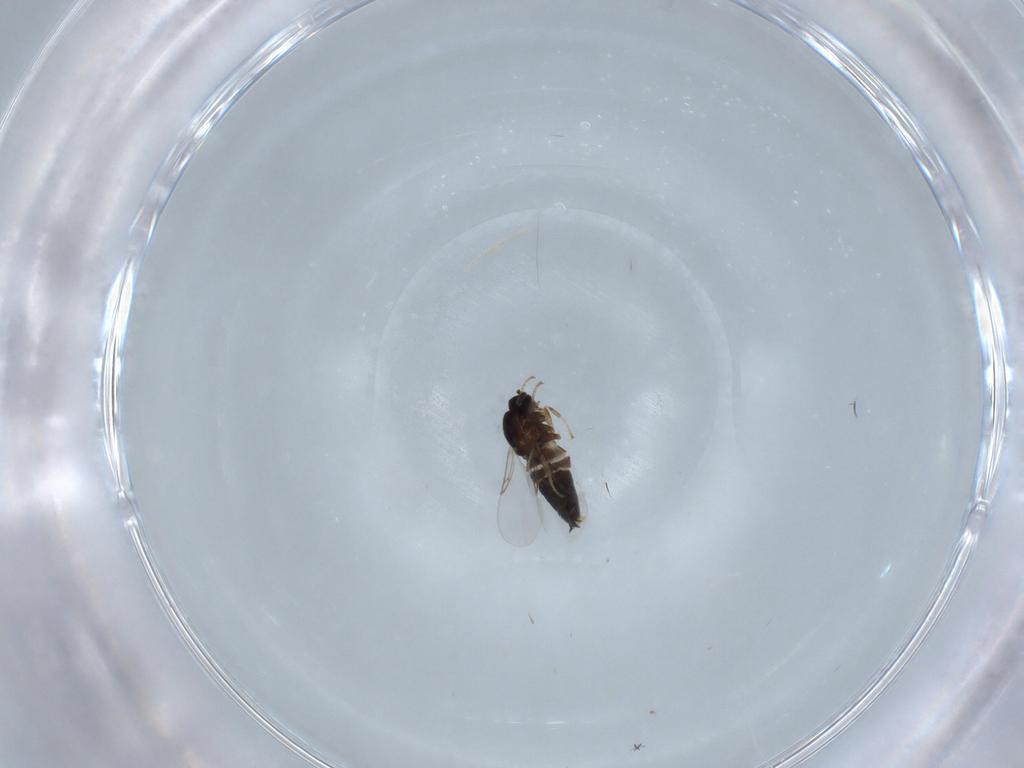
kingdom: Animalia
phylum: Arthropoda
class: Insecta
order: Diptera
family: Scatopsidae
